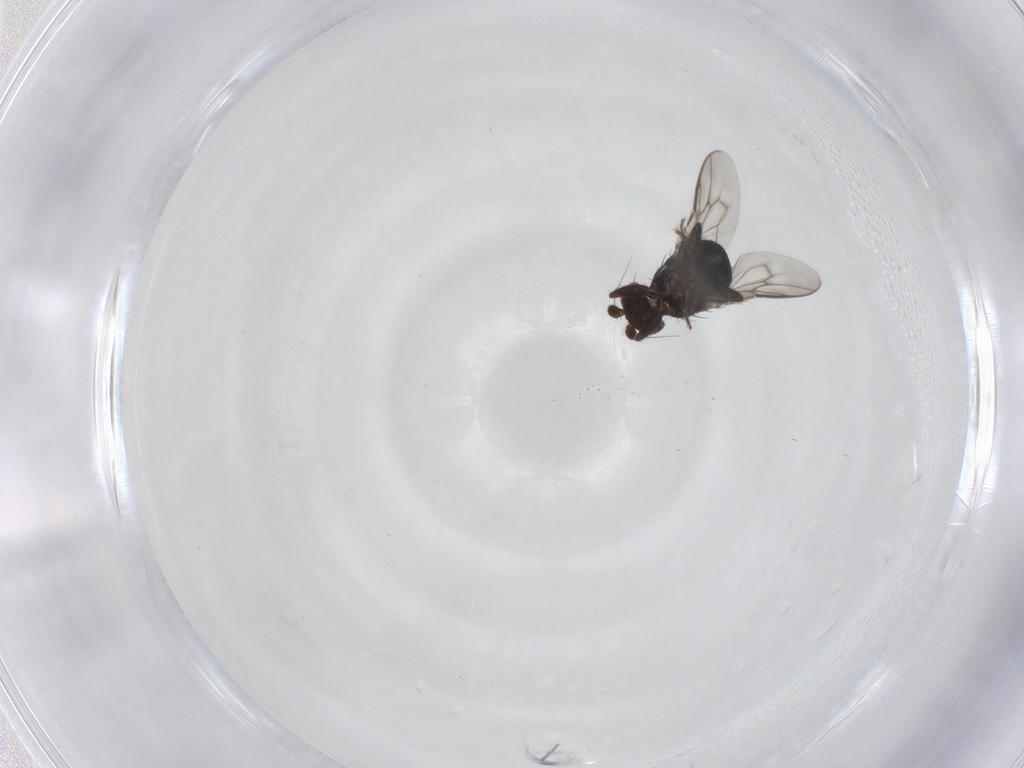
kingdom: Animalia
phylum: Arthropoda
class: Insecta
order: Diptera
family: Sphaeroceridae
